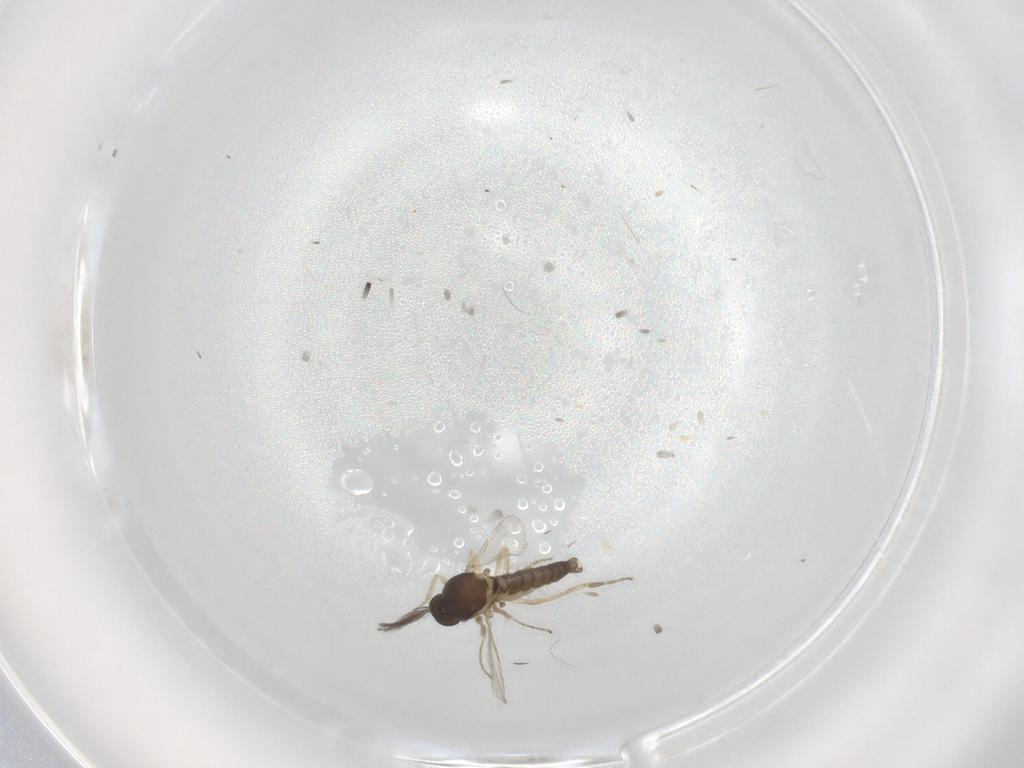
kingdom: Animalia
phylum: Arthropoda
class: Insecta
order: Diptera
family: Ceratopogonidae
